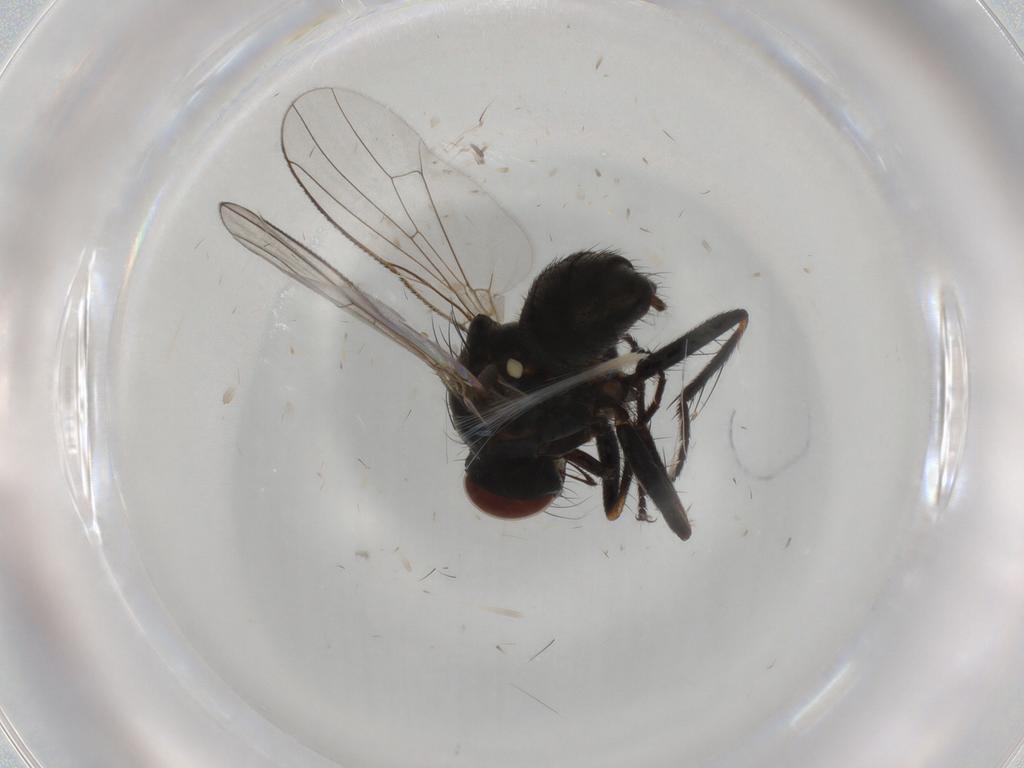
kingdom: Animalia
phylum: Arthropoda
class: Insecta
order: Diptera
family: Muscidae
